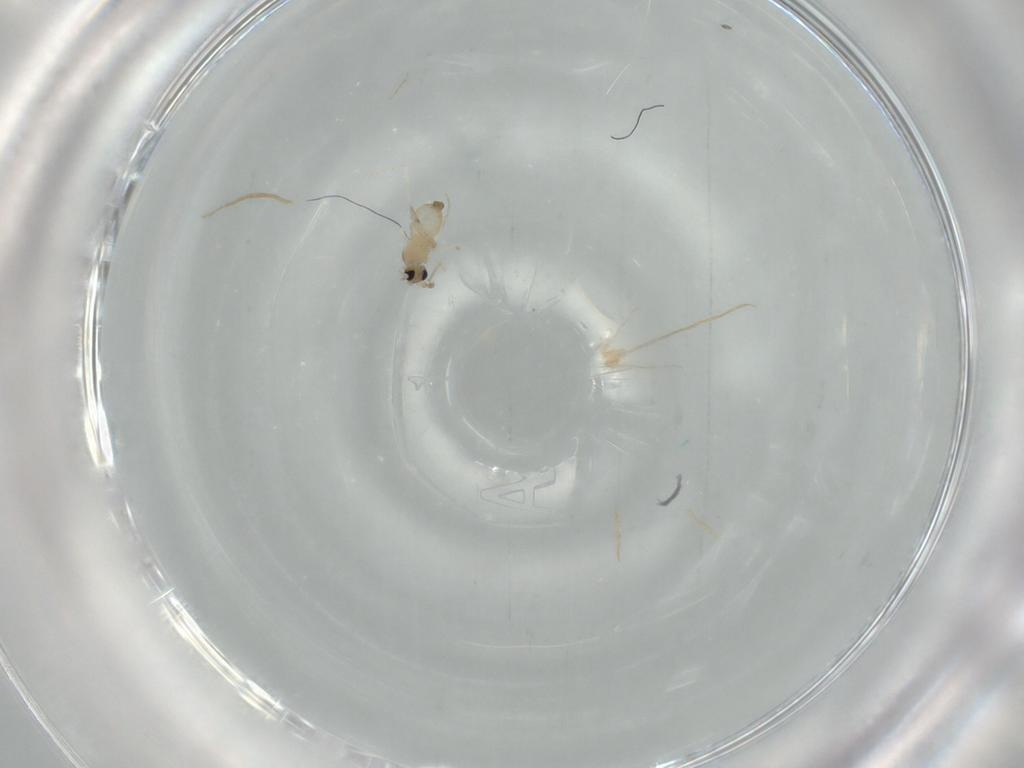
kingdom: Animalia
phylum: Arthropoda
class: Insecta
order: Diptera
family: Cecidomyiidae
